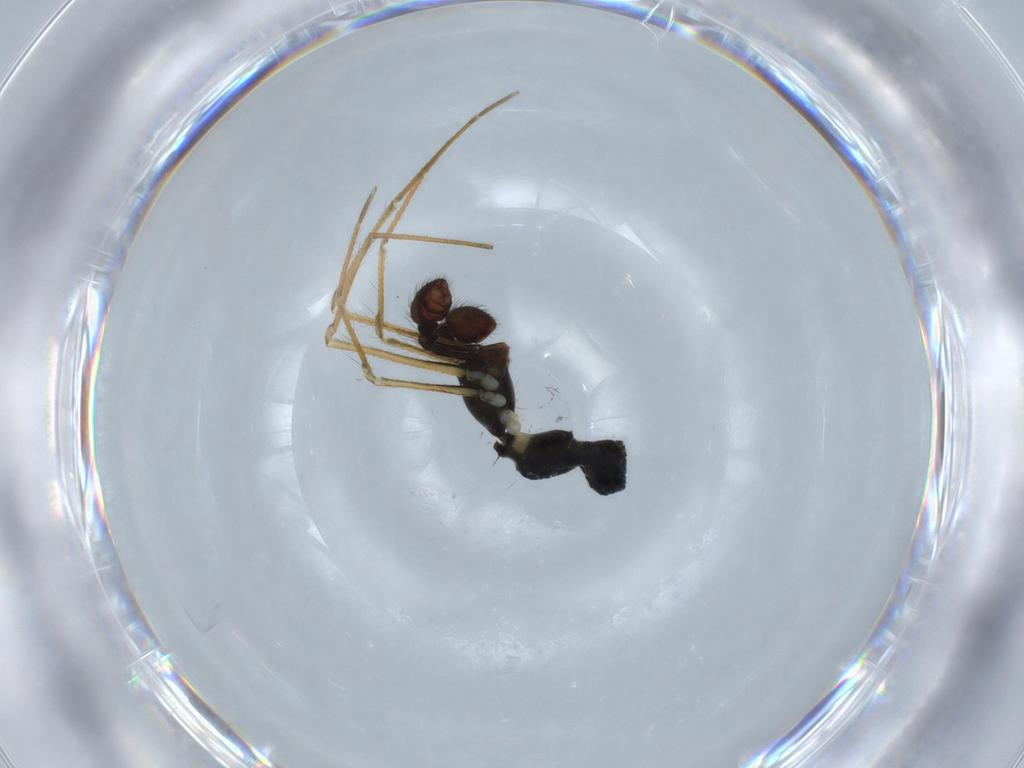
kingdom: Animalia
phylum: Arthropoda
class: Arachnida
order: Araneae
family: Theridiidae
